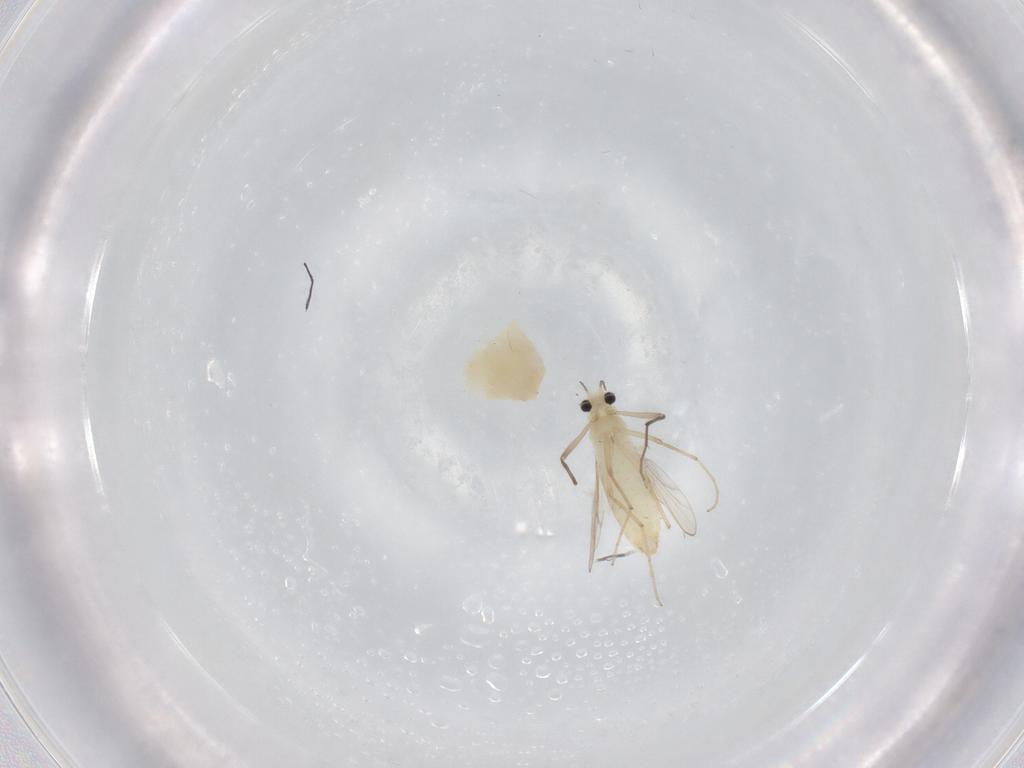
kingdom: Animalia
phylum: Arthropoda
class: Insecta
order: Diptera
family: Chironomidae
